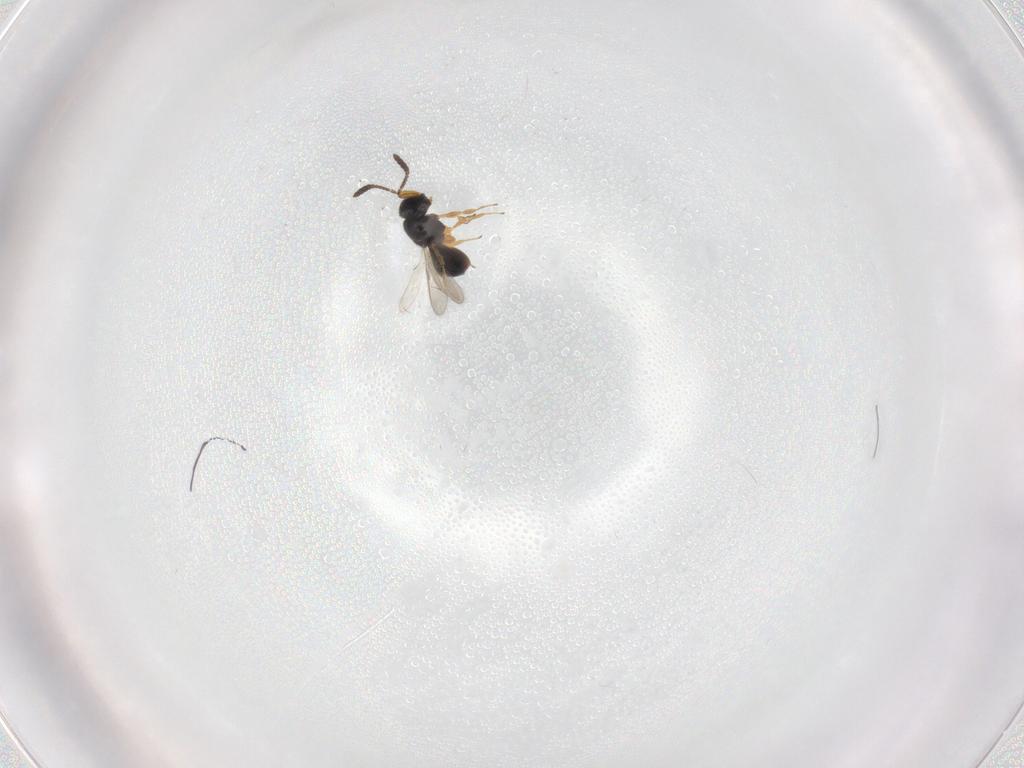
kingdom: Animalia
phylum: Arthropoda
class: Insecta
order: Hymenoptera
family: Scelionidae
